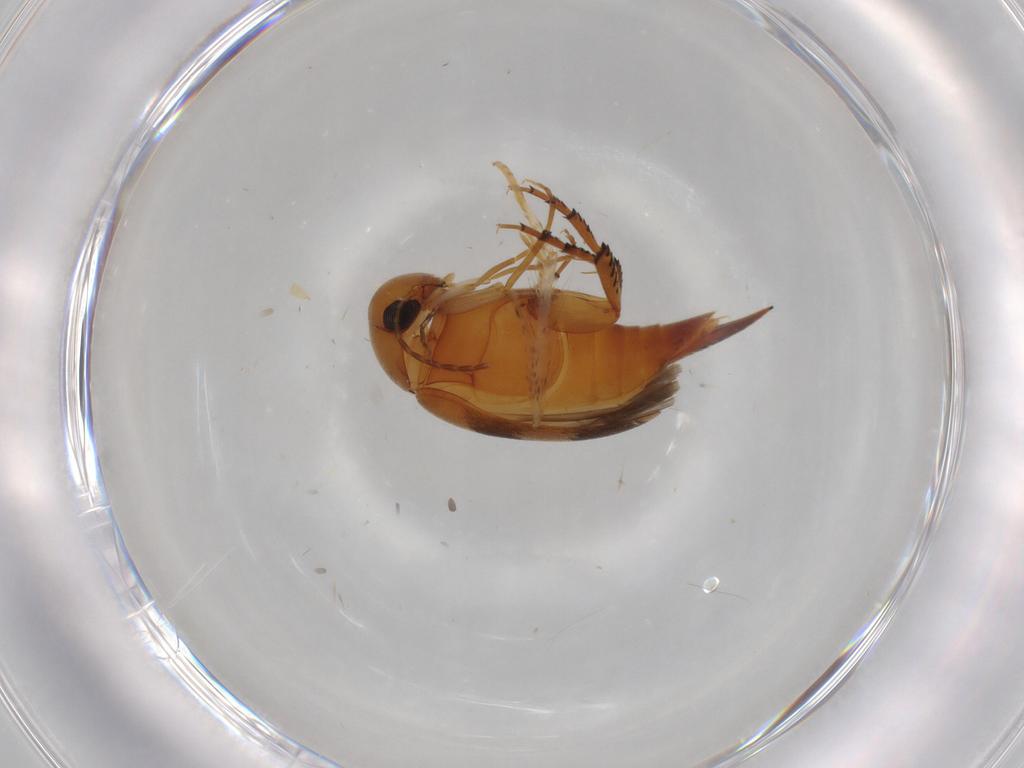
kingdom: Animalia
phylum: Arthropoda
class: Insecta
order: Coleoptera
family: Mordellidae
